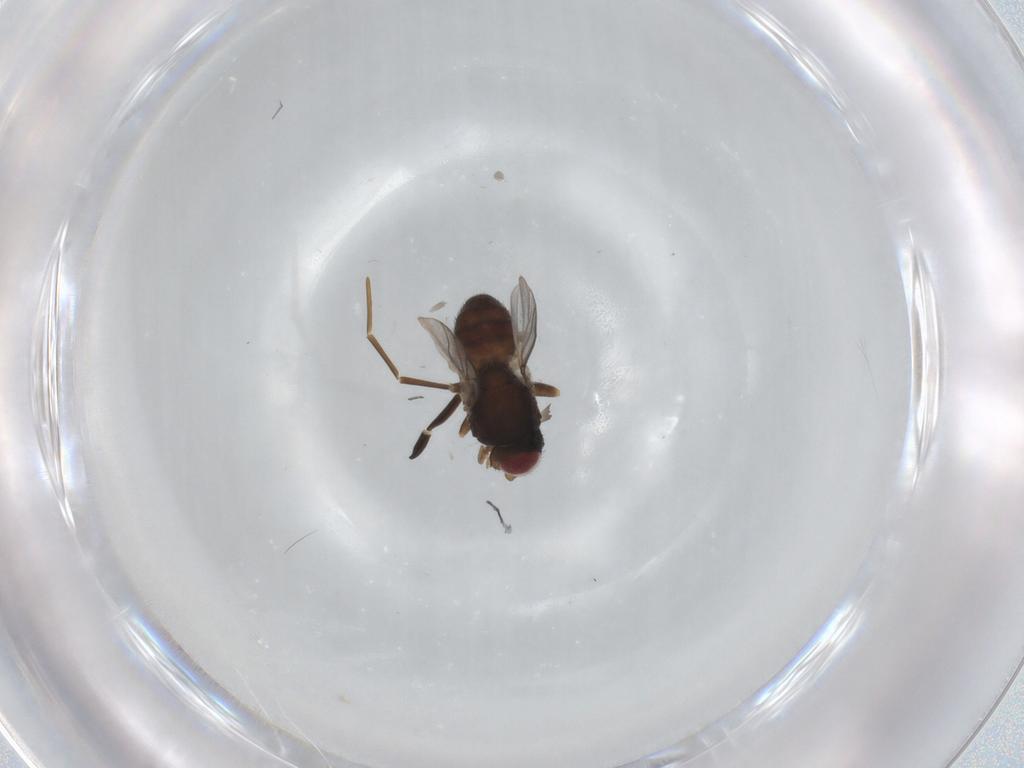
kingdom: Animalia
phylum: Arthropoda
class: Insecta
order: Diptera
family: Chloropidae
